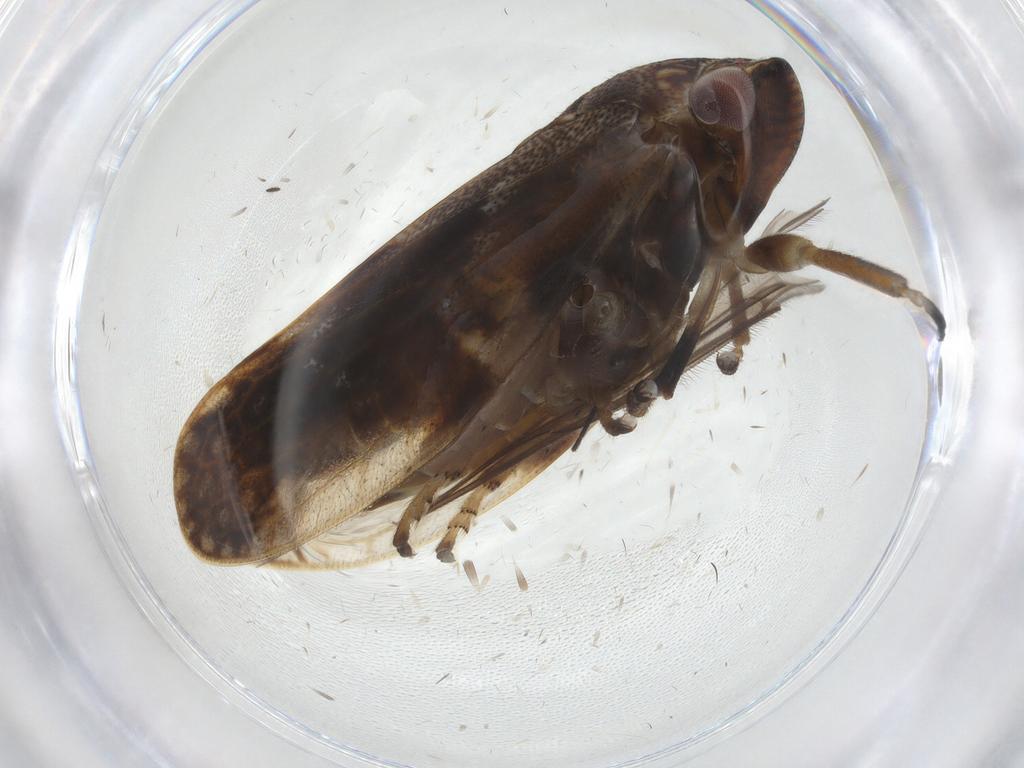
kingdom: Animalia
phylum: Arthropoda
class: Insecta
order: Hemiptera
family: Aphrophoridae
